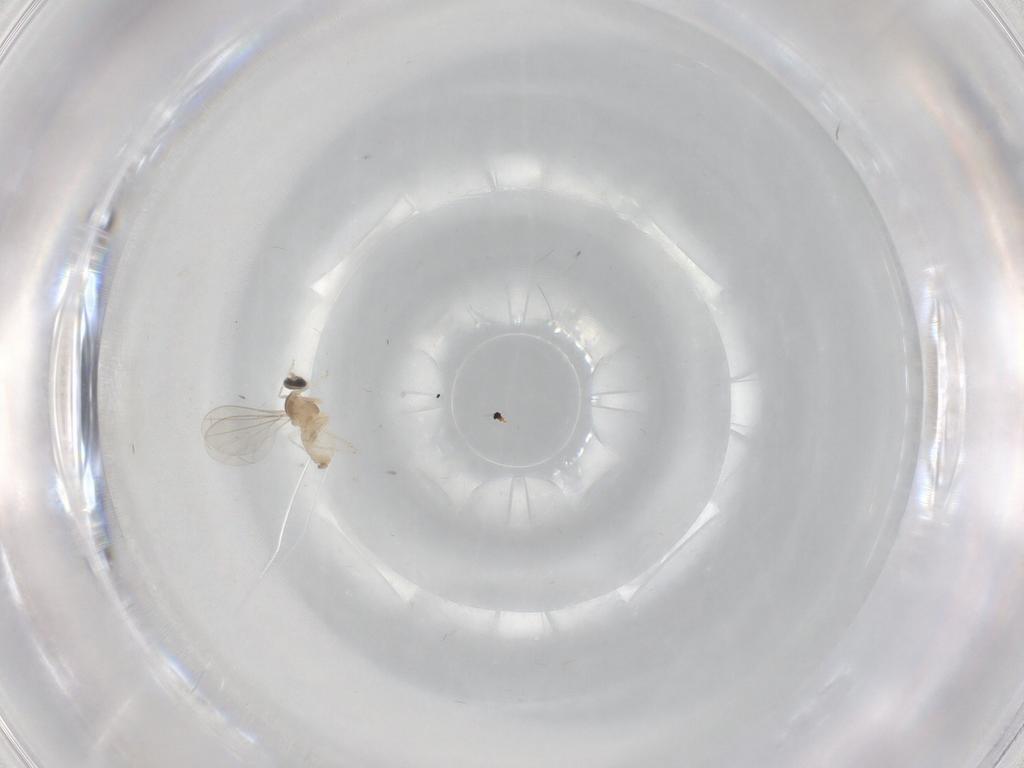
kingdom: Animalia
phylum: Arthropoda
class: Insecta
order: Diptera
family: Cecidomyiidae
